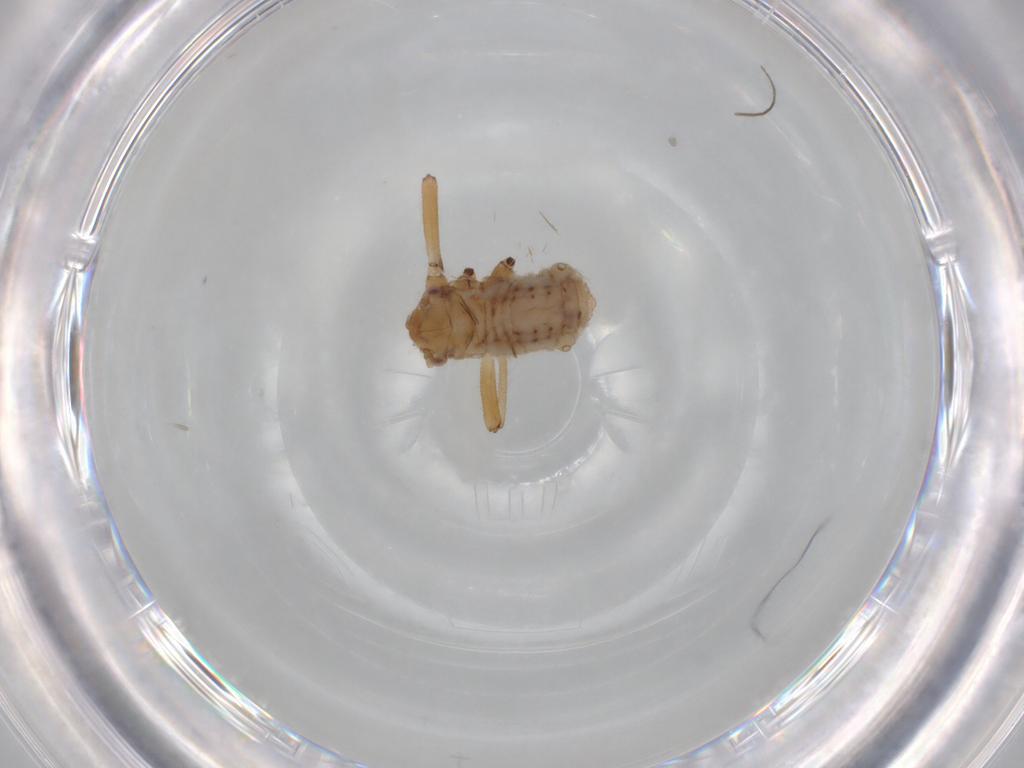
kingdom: Animalia
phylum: Arthropoda
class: Insecta
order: Hemiptera
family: Aphididae
